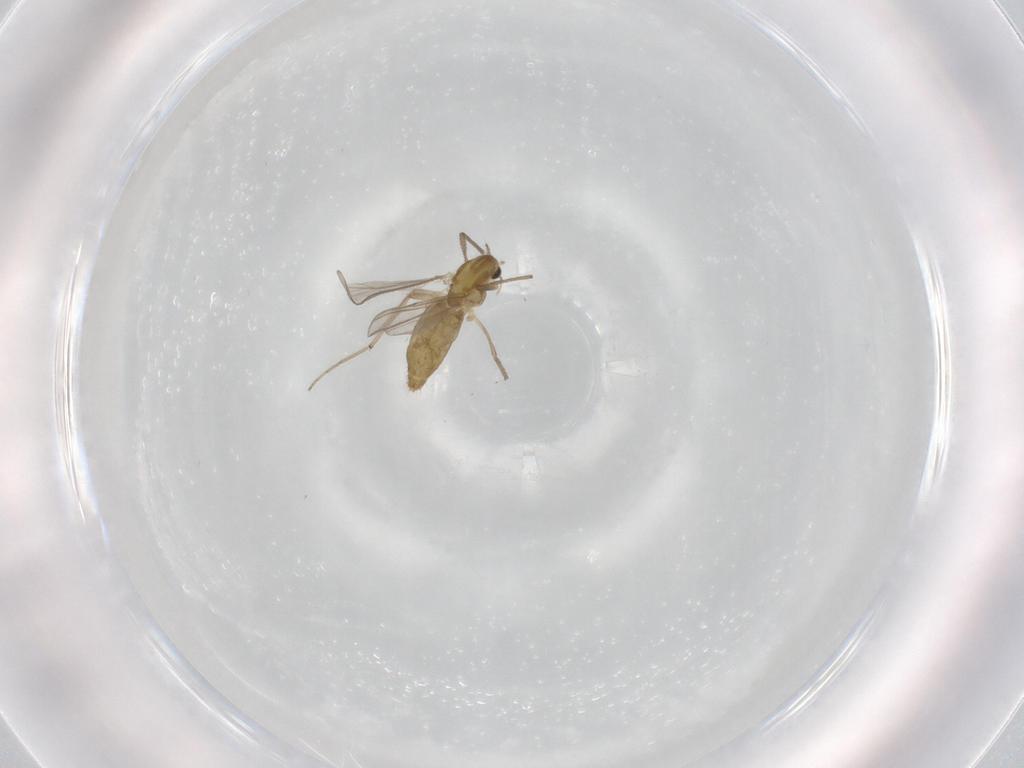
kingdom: Animalia
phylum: Arthropoda
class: Insecta
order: Diptera
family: Chironomidae
